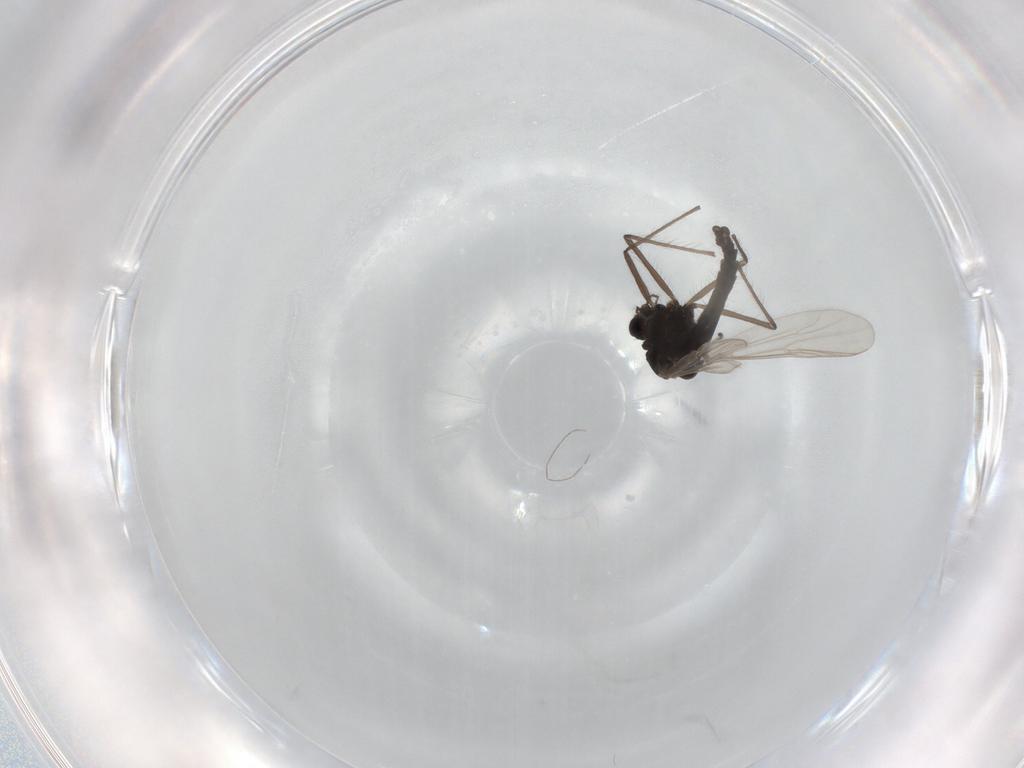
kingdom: Animalia
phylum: Arthropoda
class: Insecta
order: Diptera
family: Chironomidae
